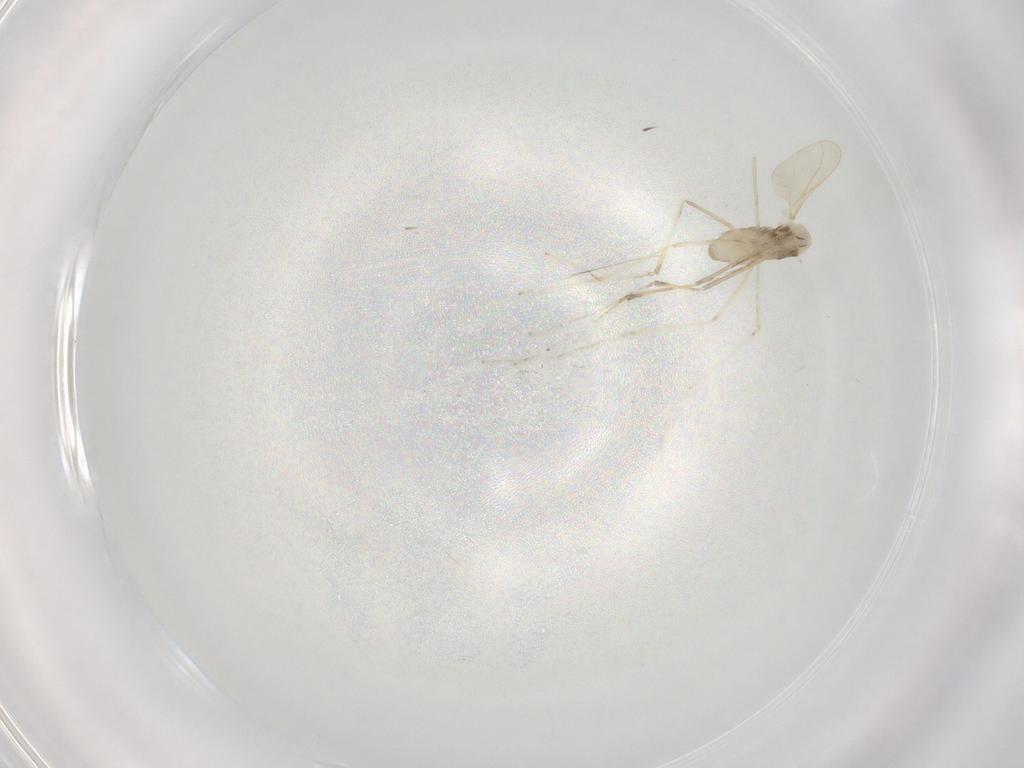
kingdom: Animalia
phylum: Arthropoda
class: Insecta
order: Diptera
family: Cecidomyiidae
